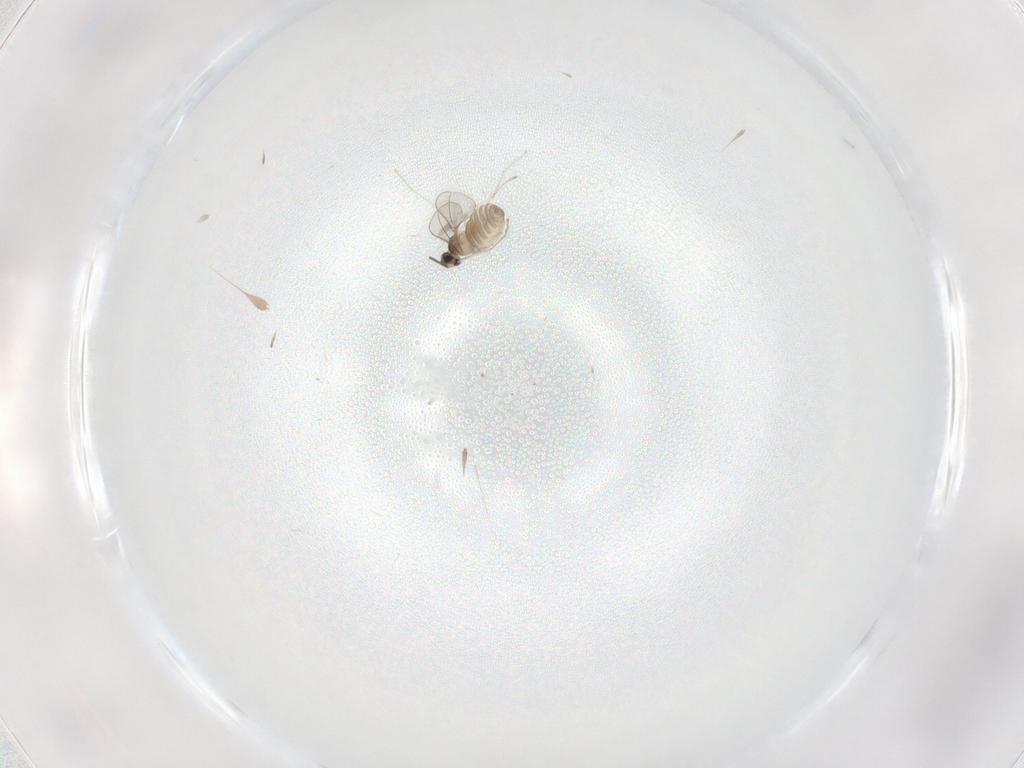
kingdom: Animalia
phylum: Arthropoda
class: Insecta
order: Diptera
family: Cecidomyiidae
